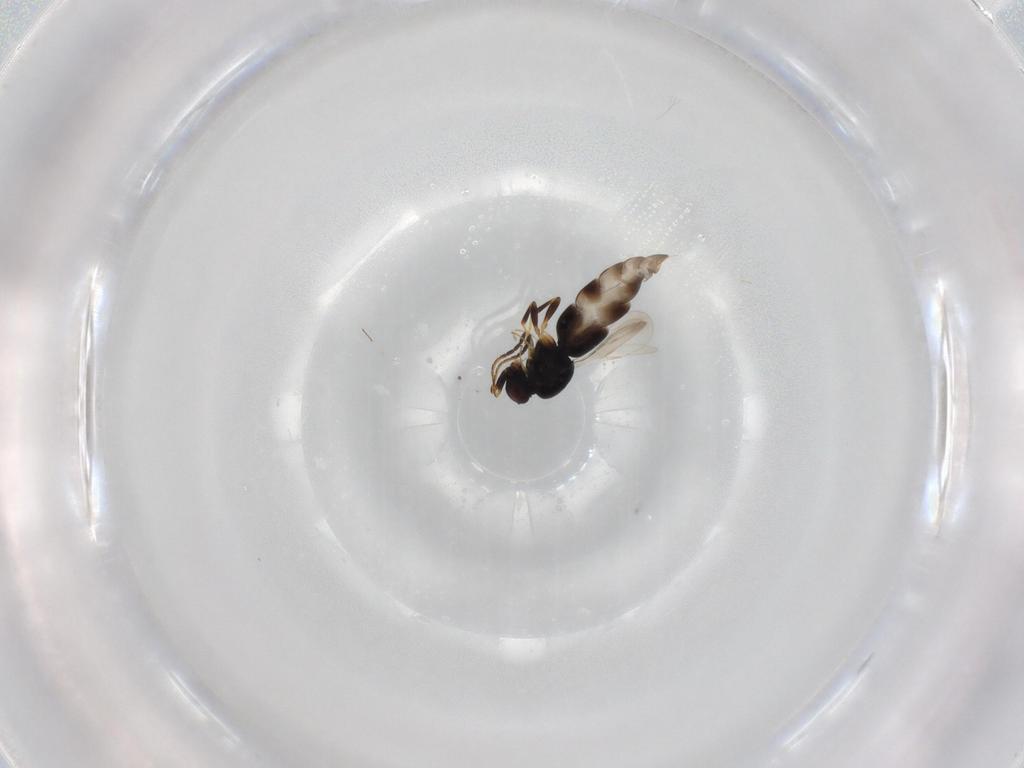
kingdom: Animalia
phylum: Arthropoda
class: Insecta
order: Hymenoptera
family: Ceraphronidae
